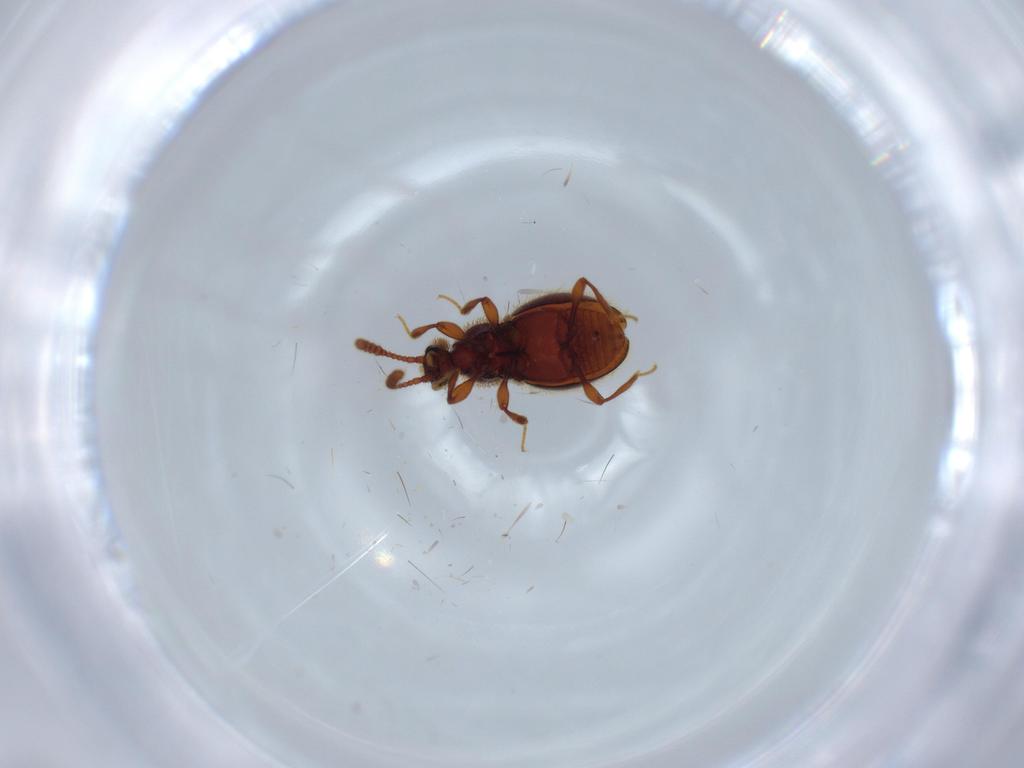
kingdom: Animalia
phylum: Arthropoda
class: Insecta
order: Coleoptera
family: Staphylinidae
